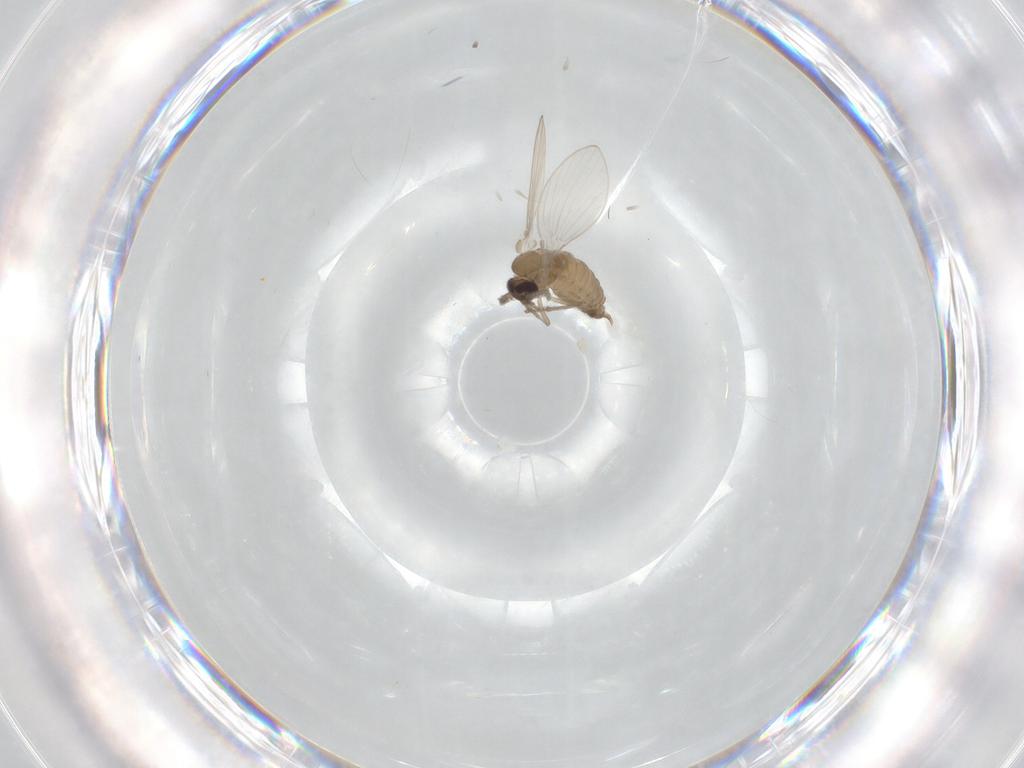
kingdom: Animalia
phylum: Arthropoda
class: Insecta
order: Diptera
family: Psychodidae
